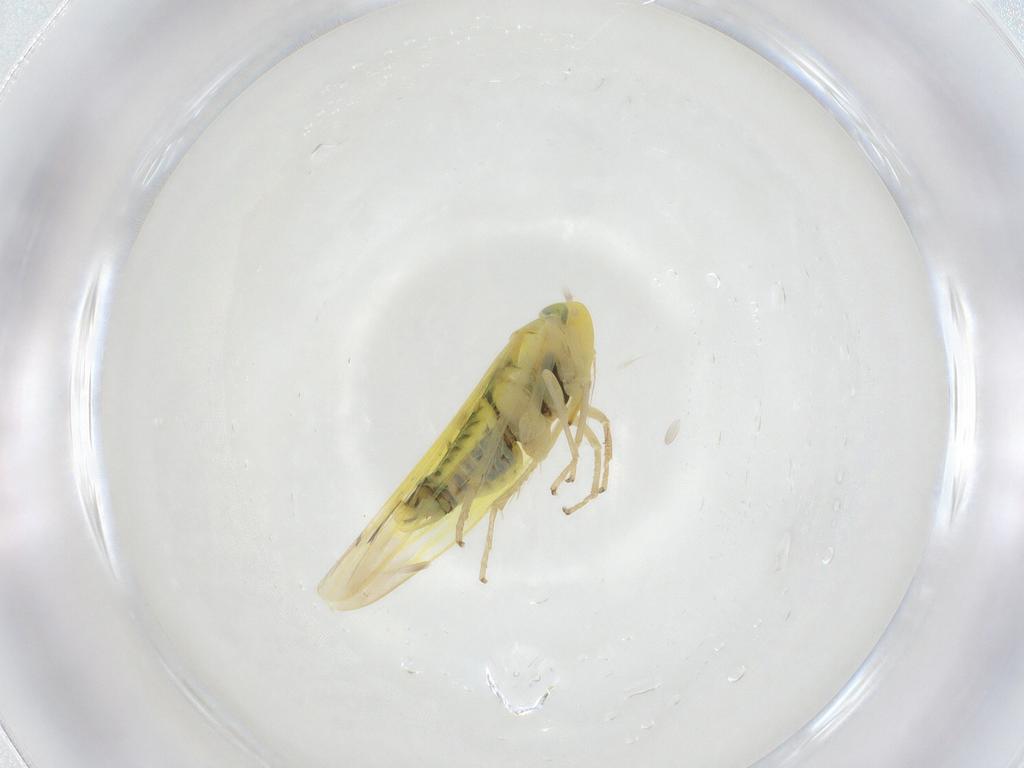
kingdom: Animalia
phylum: Arthropoda
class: Insecta
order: Hemiptera
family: Cicadellidae
